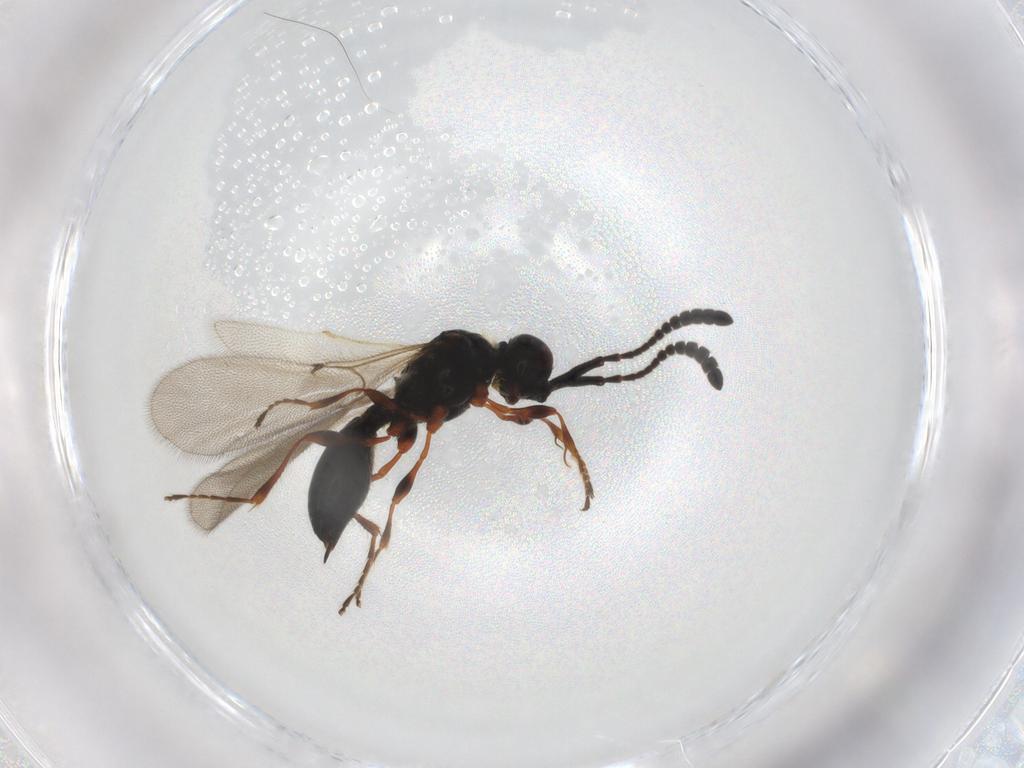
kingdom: Animalia
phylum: Arthropoda
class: Insecta
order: Hymenoptera
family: Diapriidae
